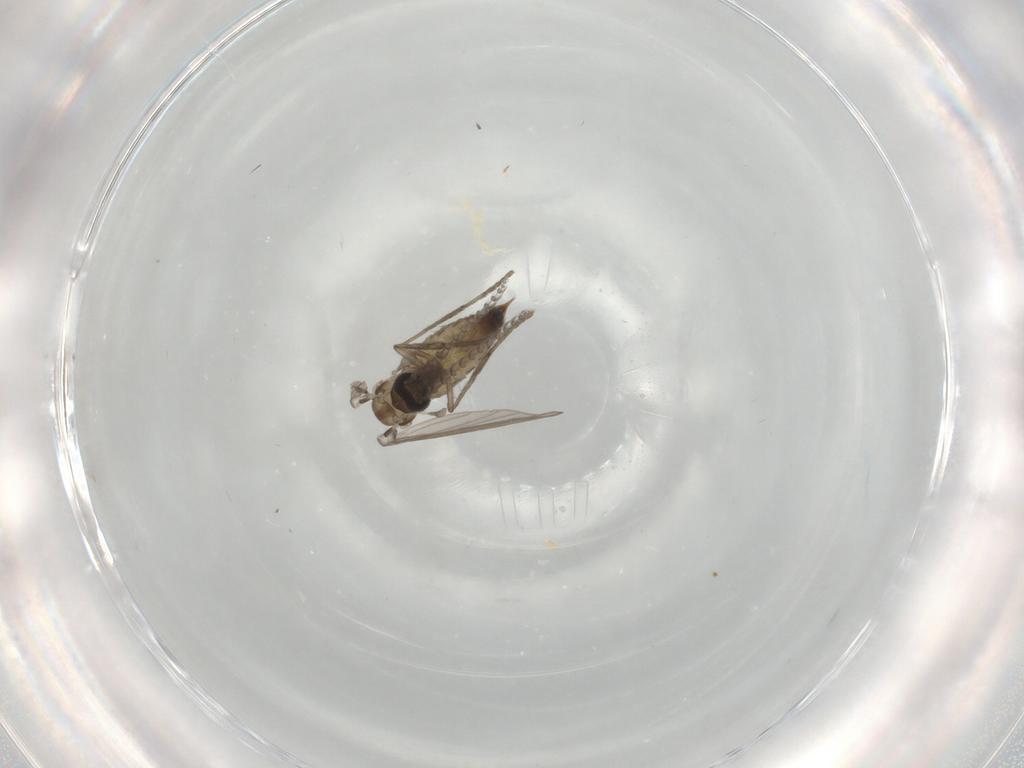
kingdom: Animalia
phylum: Arthropoda
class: Insecta
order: Diptera
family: Psychodidae
